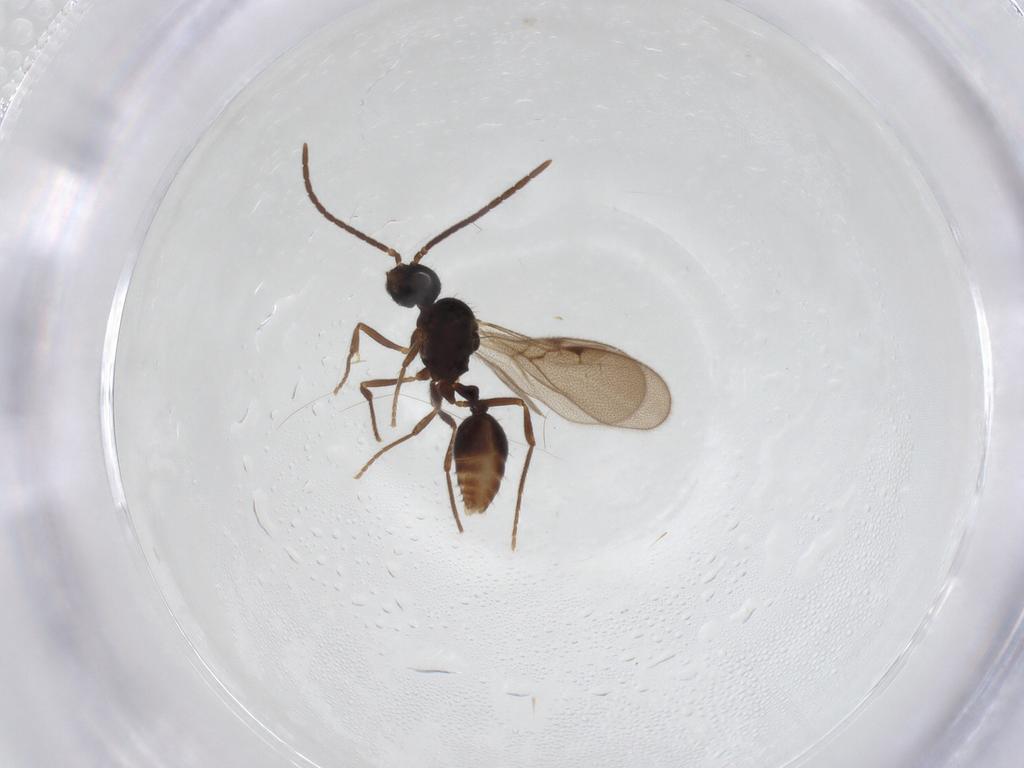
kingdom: Animalia
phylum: Arthropoda
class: Insecta
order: Hymenoptera
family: Formicidae
